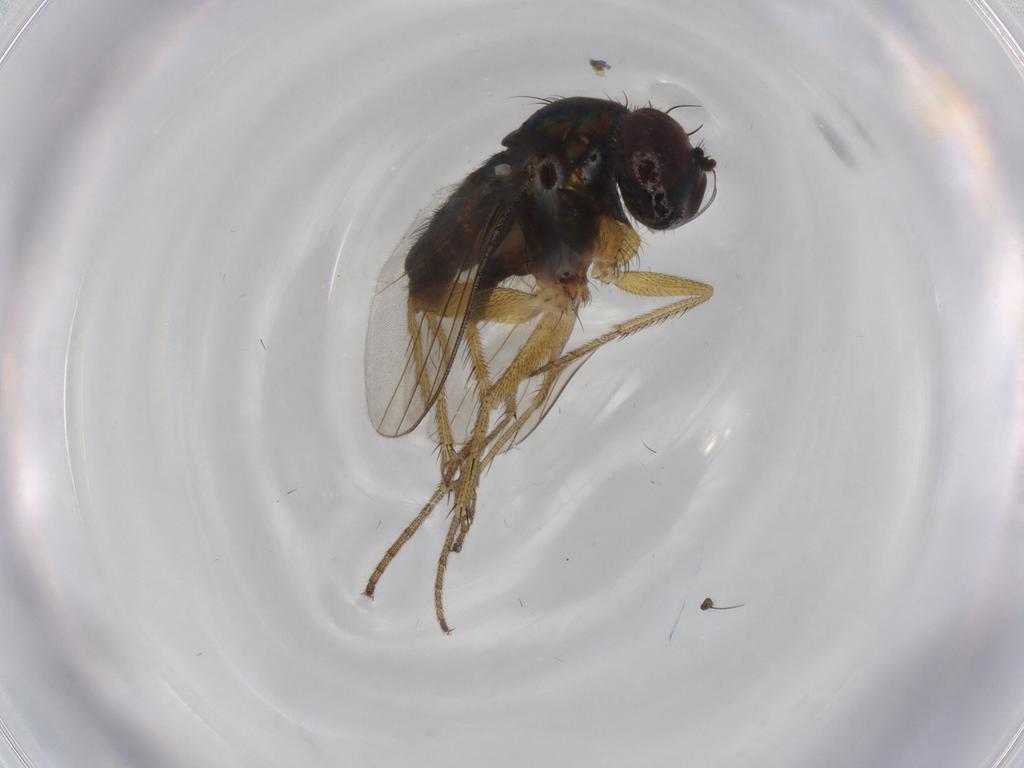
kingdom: Animalia
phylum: Arthropoda
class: Insecta
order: Diptera
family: Dolichopodidae
